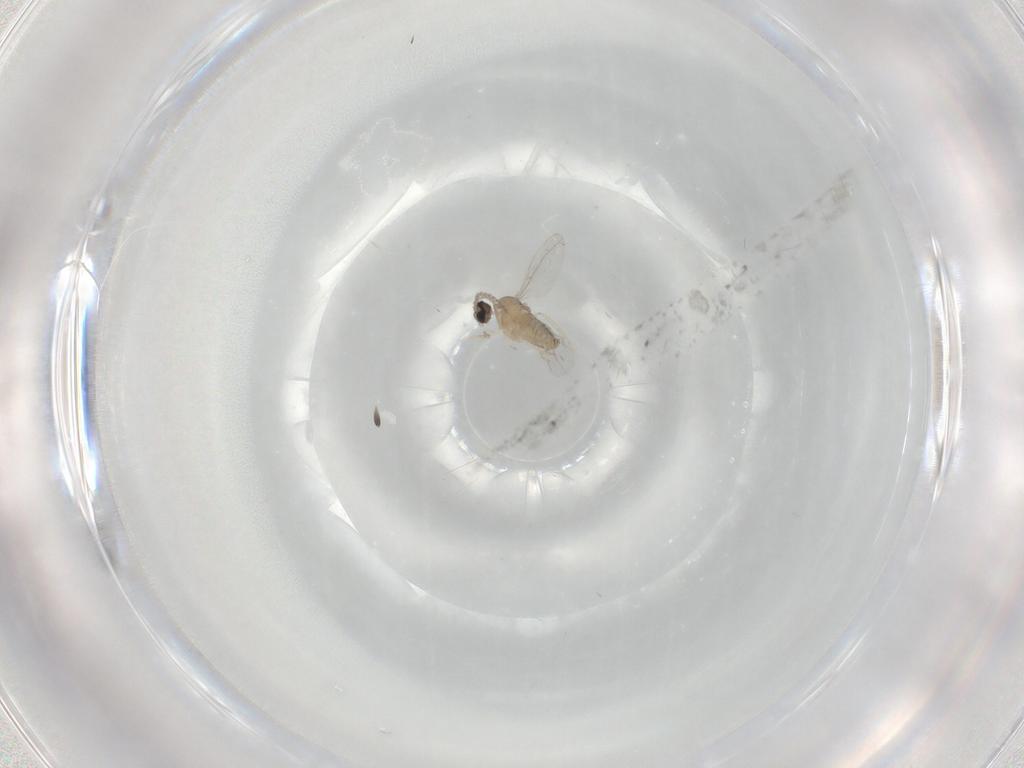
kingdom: Animalia
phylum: Arthropoda
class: Insecta
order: Diptera
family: Cecidomyiidae
